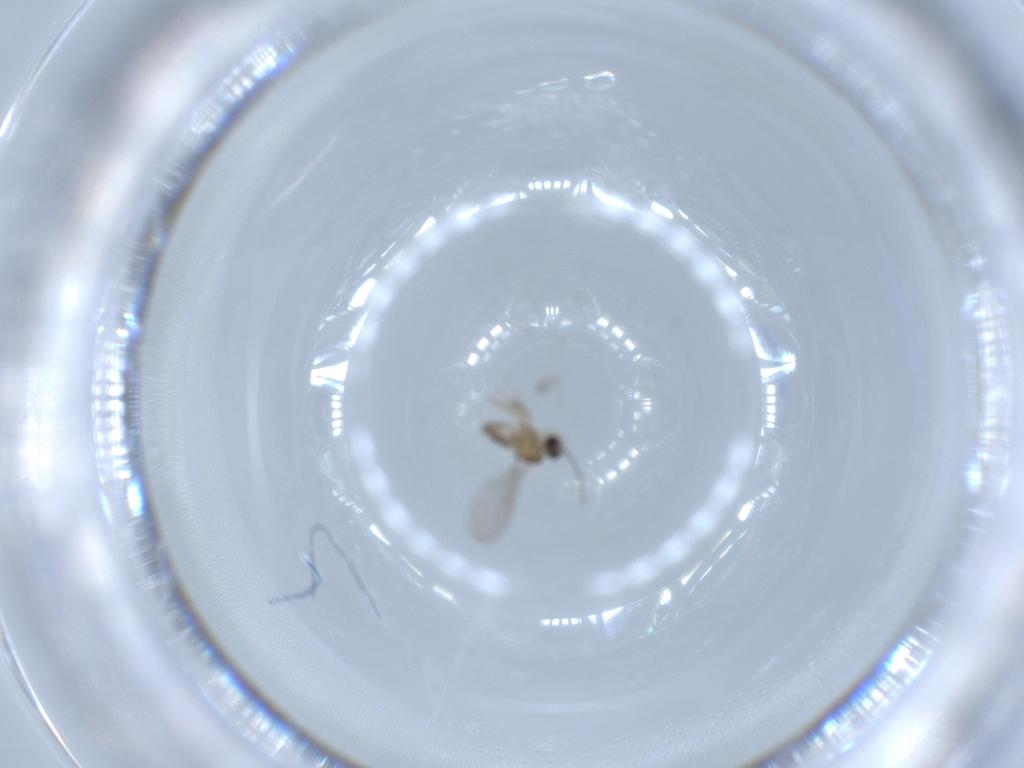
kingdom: Animalia
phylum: Arthropoda
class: Insecta
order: Diptera
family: Cecidomyiidae
